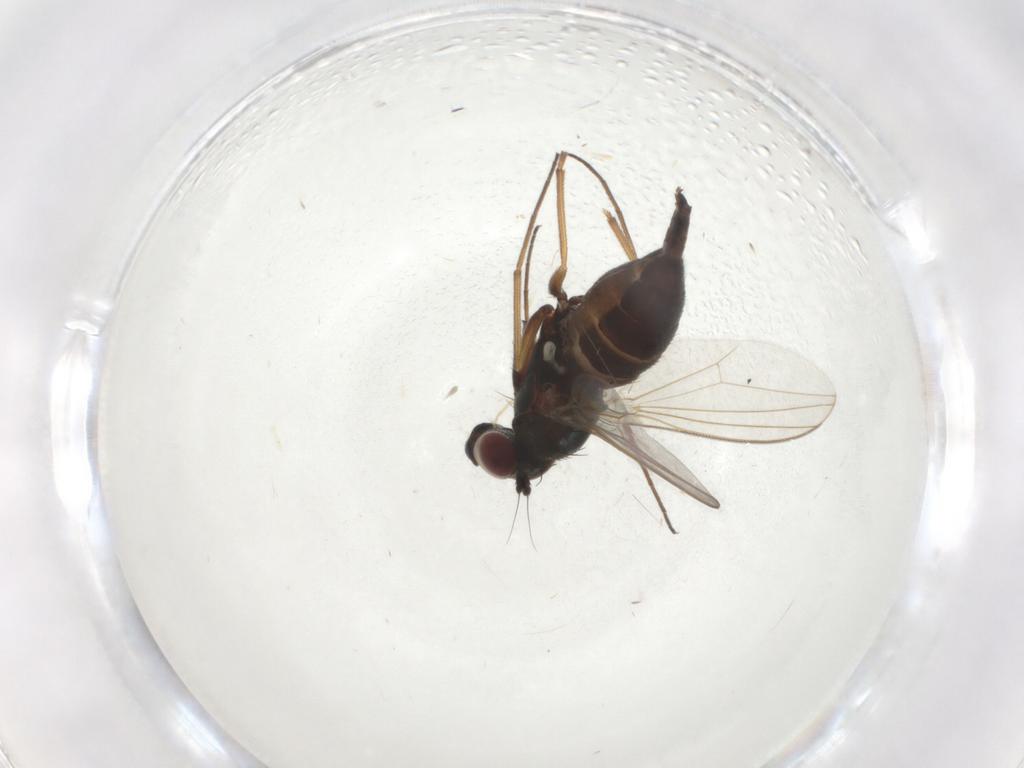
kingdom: Animalia
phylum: Arthropoda
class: Insecta
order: Diptera
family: Dolichopodidae
